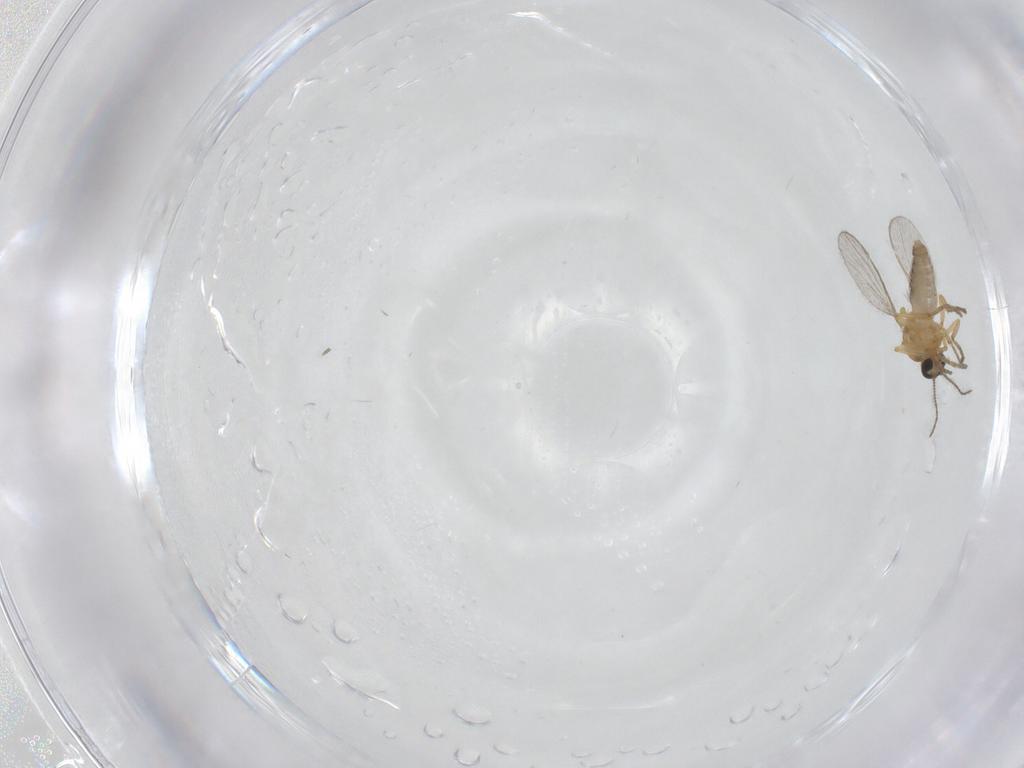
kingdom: Animalia
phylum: Arthropoda
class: Insecta
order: Diptera
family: Ceratopogonidae
